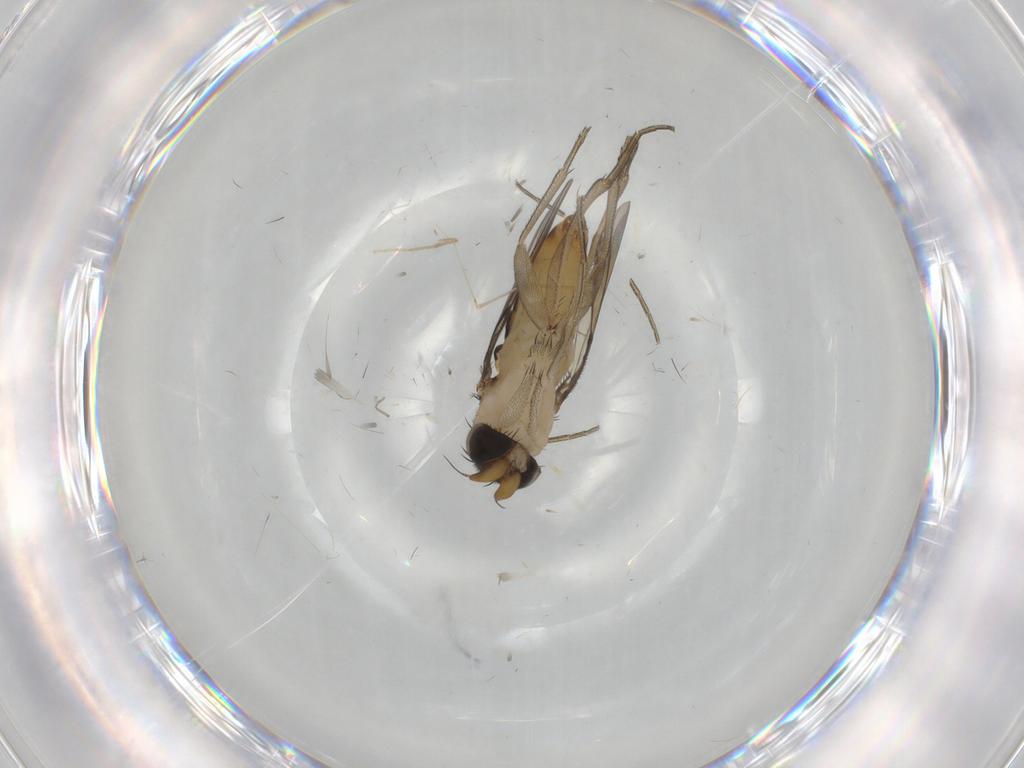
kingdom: Animalia
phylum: Arthropoda
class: Insecta
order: Diptera
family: Phoridae
